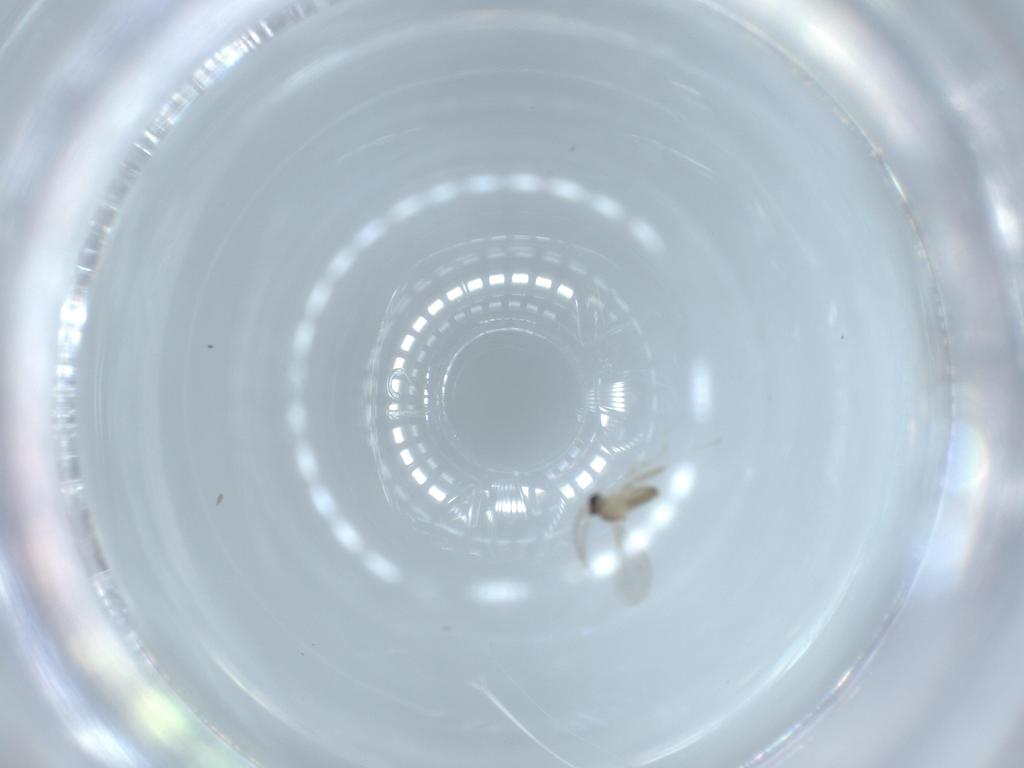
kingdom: Animalia
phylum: Arthropoda
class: Insecta
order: Diptera
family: Cecidomyiidae
